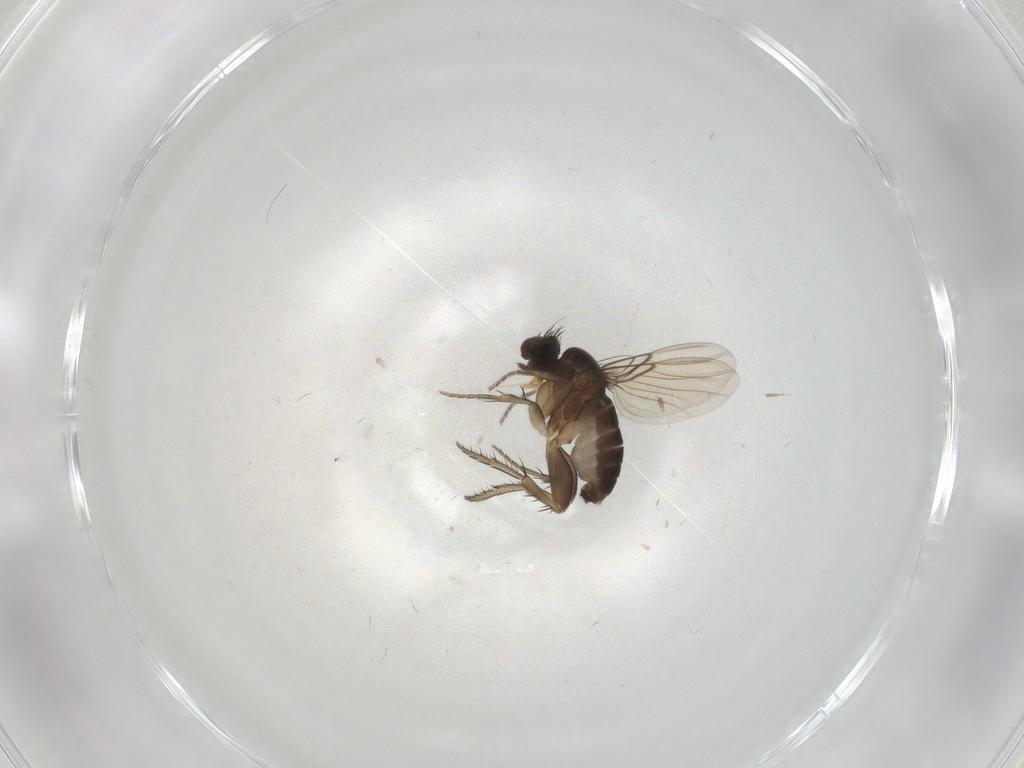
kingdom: Animalia
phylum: Arthropoda
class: Insecta
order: Diptera
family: Phoridae
